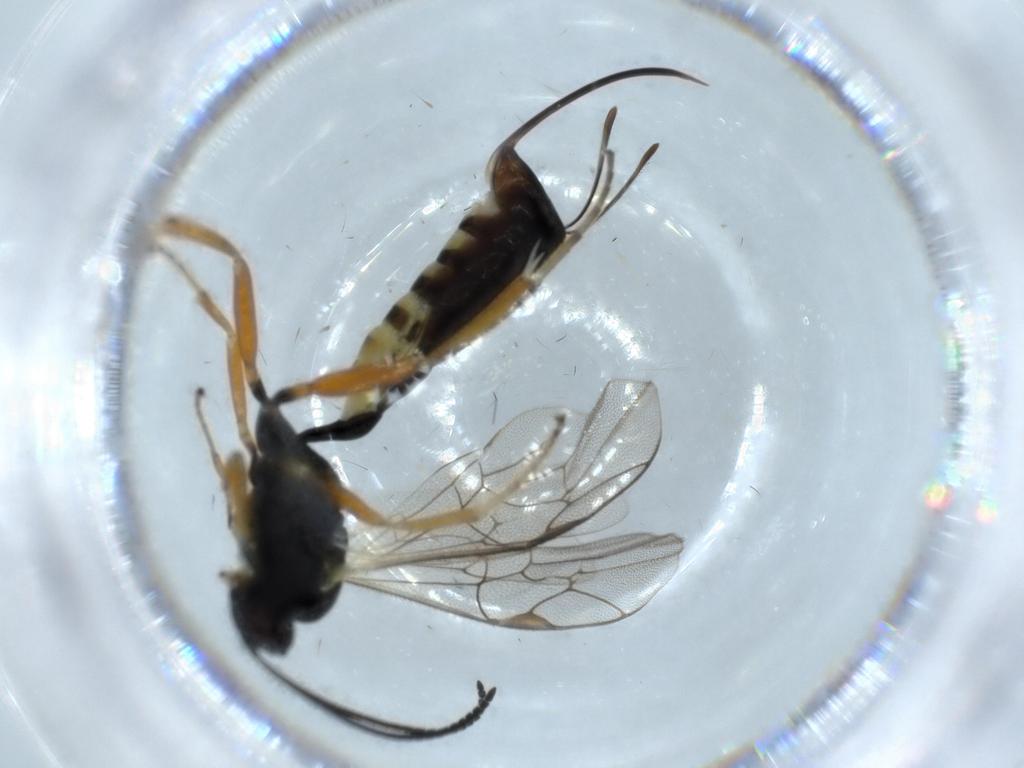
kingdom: Animalia
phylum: Arthropoda
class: Insecta
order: Hymenoptera
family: Ichneumonidae
